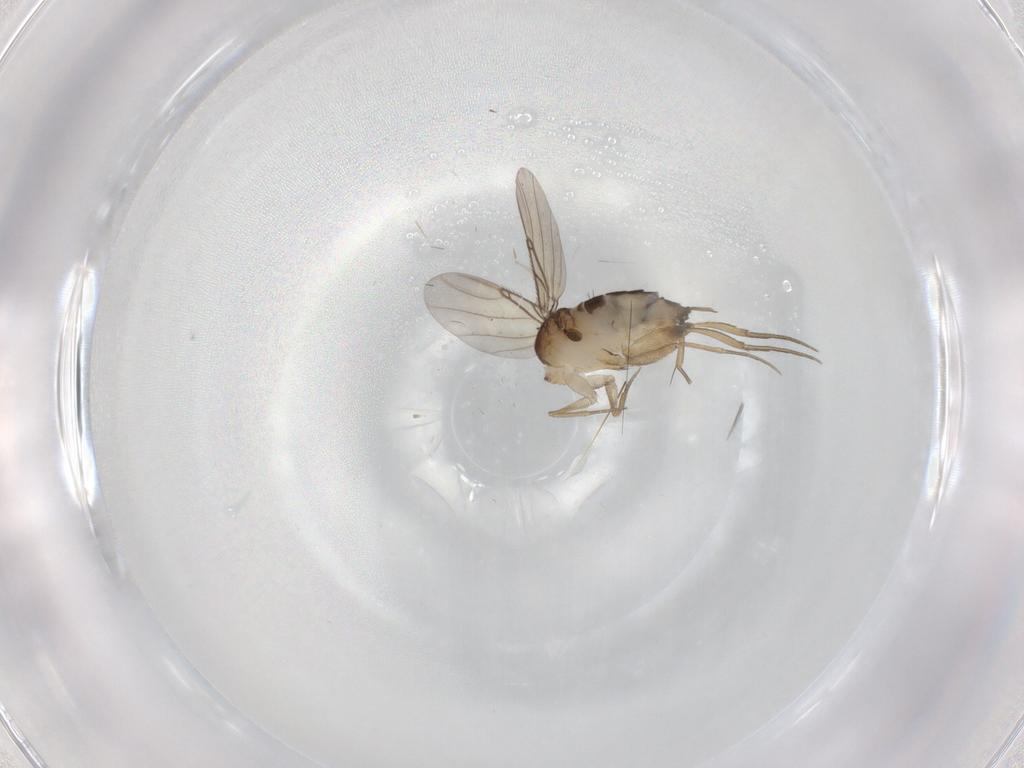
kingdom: Animalia
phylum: Arthropoda
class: Insecta
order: Diptera
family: Phoridae
